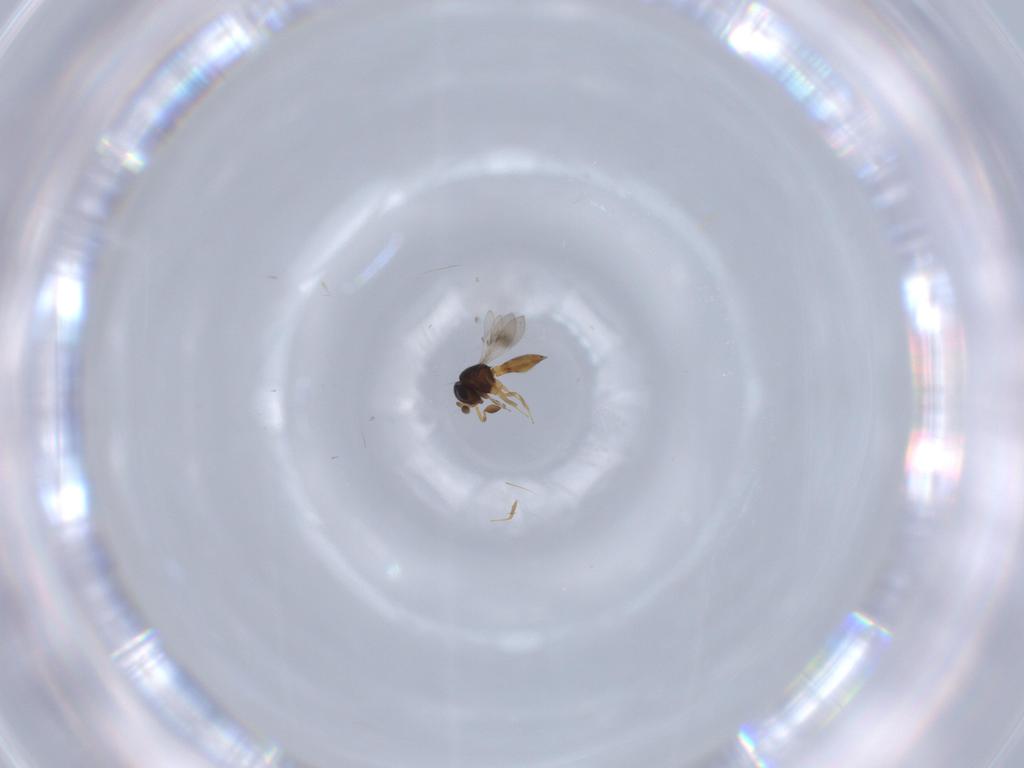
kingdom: Animalia
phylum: Arthropoda
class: Insecta
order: Hymenoptera
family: Scelionidae
